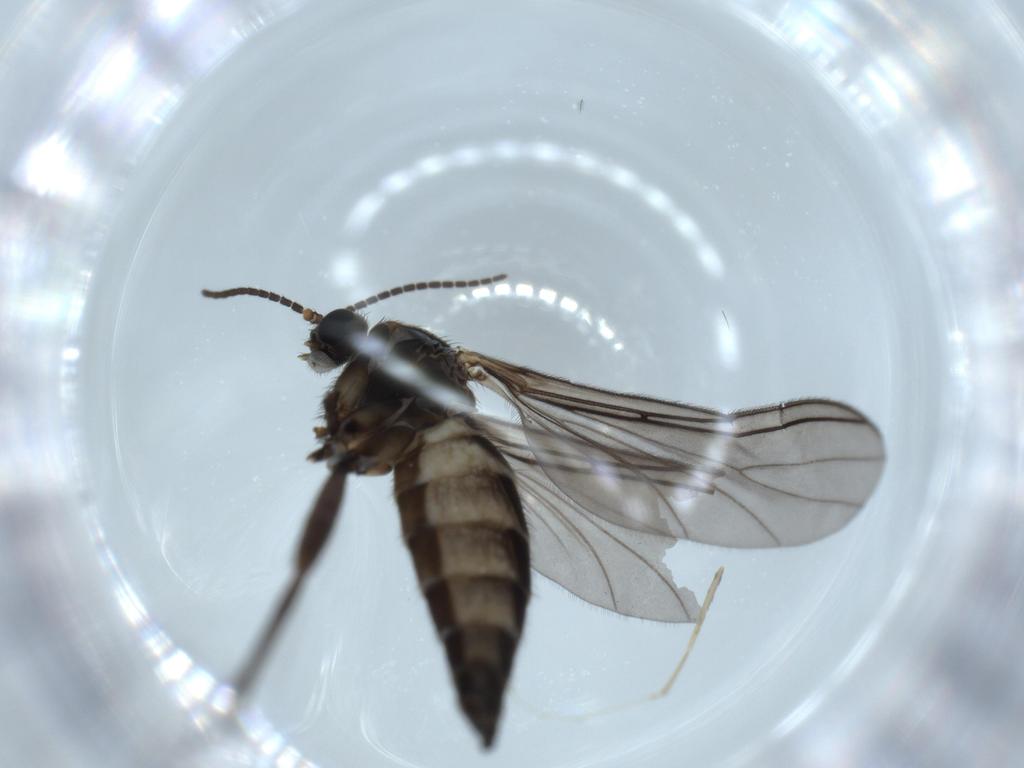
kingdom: Animalia
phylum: Arthropoda
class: Insecta
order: Diptera
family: Sciaridae
